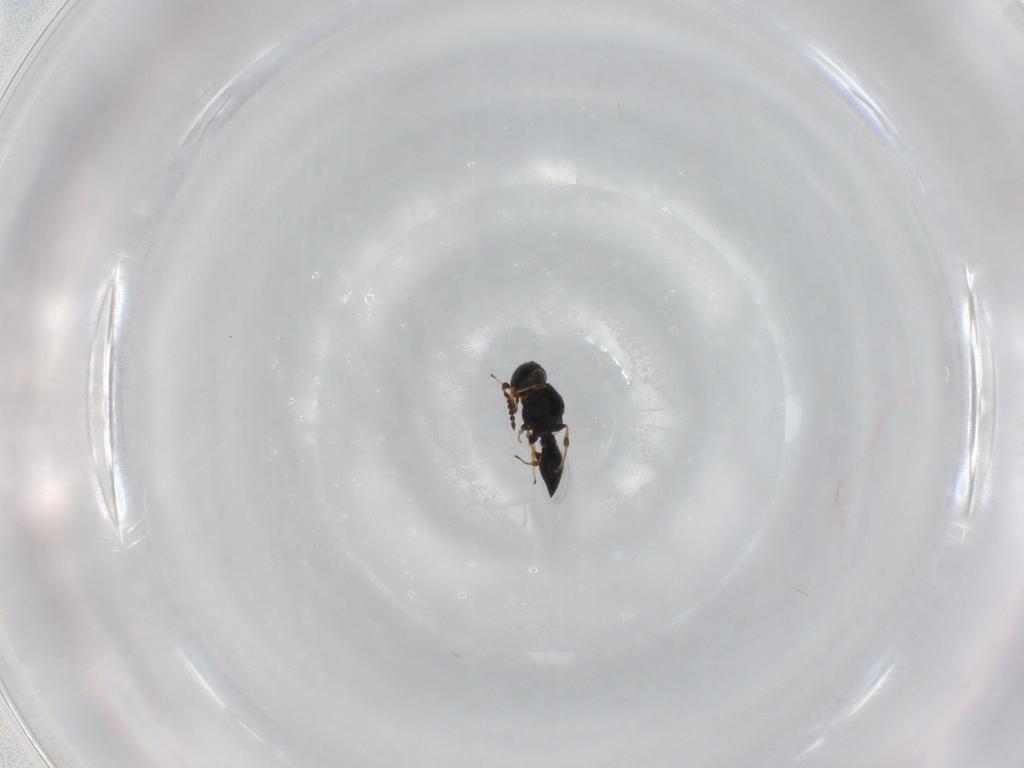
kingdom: Animalia
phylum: Arthropoda
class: Insecta
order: Hymenoptera
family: Platygastridae
